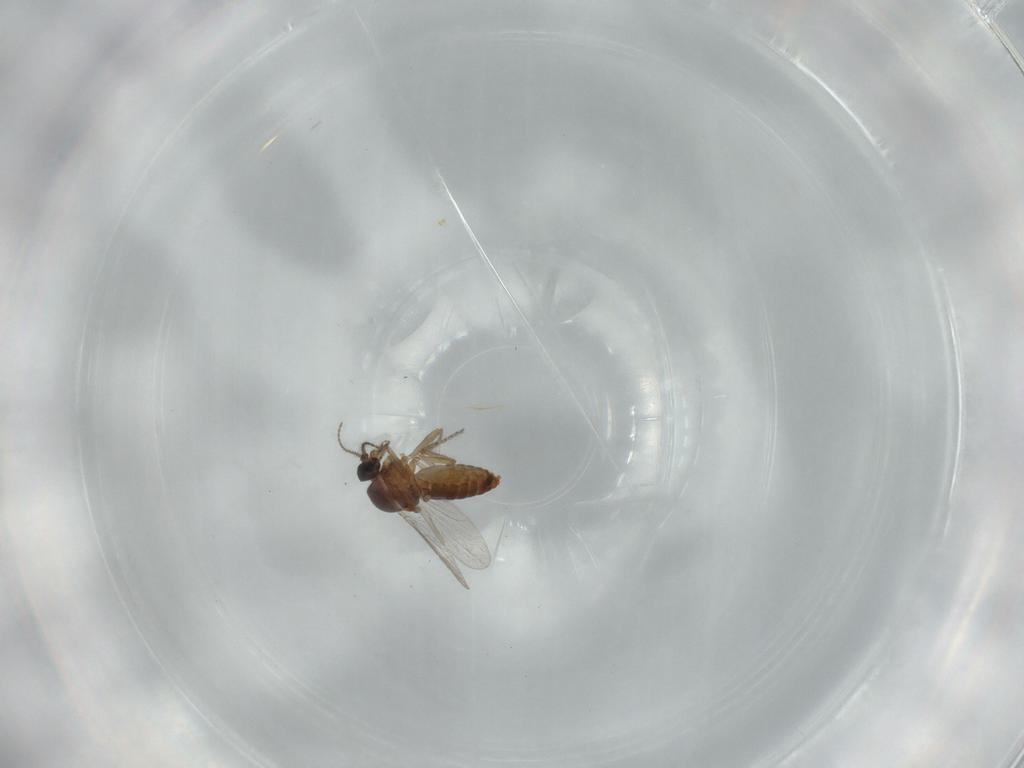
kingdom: Animalia
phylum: Arthropoda
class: Insecta
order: Diptera
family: Ceratopogonidae
